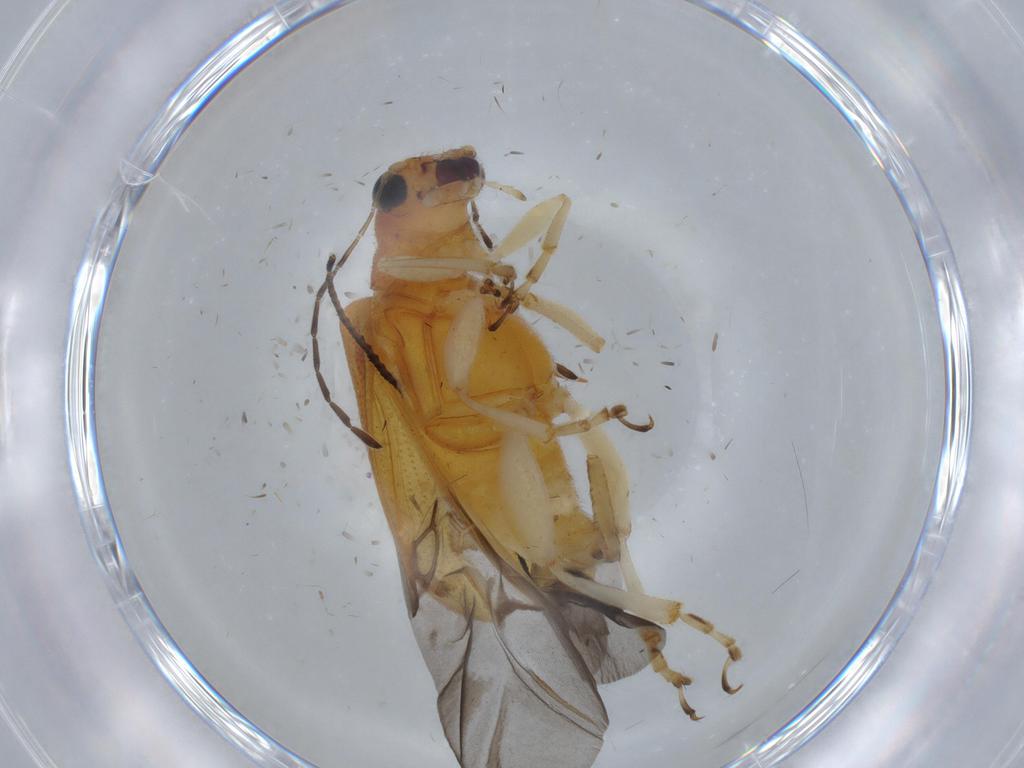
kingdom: Animalia
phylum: Arthropoda
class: Insecta
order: Coleoptera
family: Chrysomelidae
